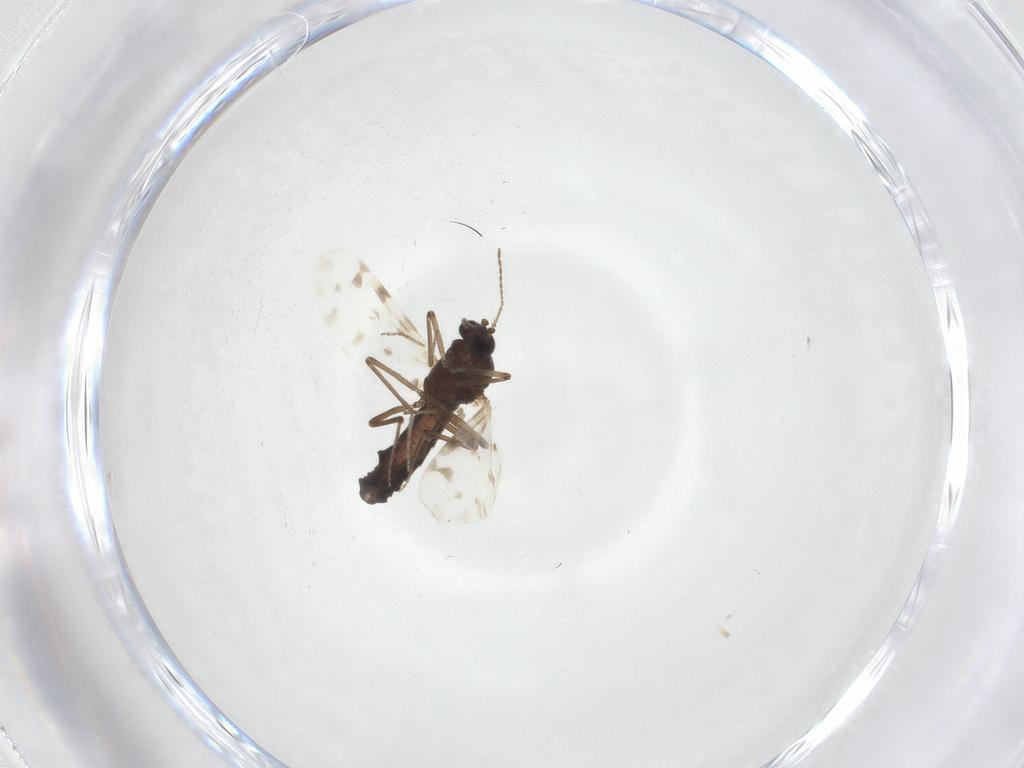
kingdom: Animalia
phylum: Arthropoda
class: Insecta
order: Diptera
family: Ceratopogonidae
